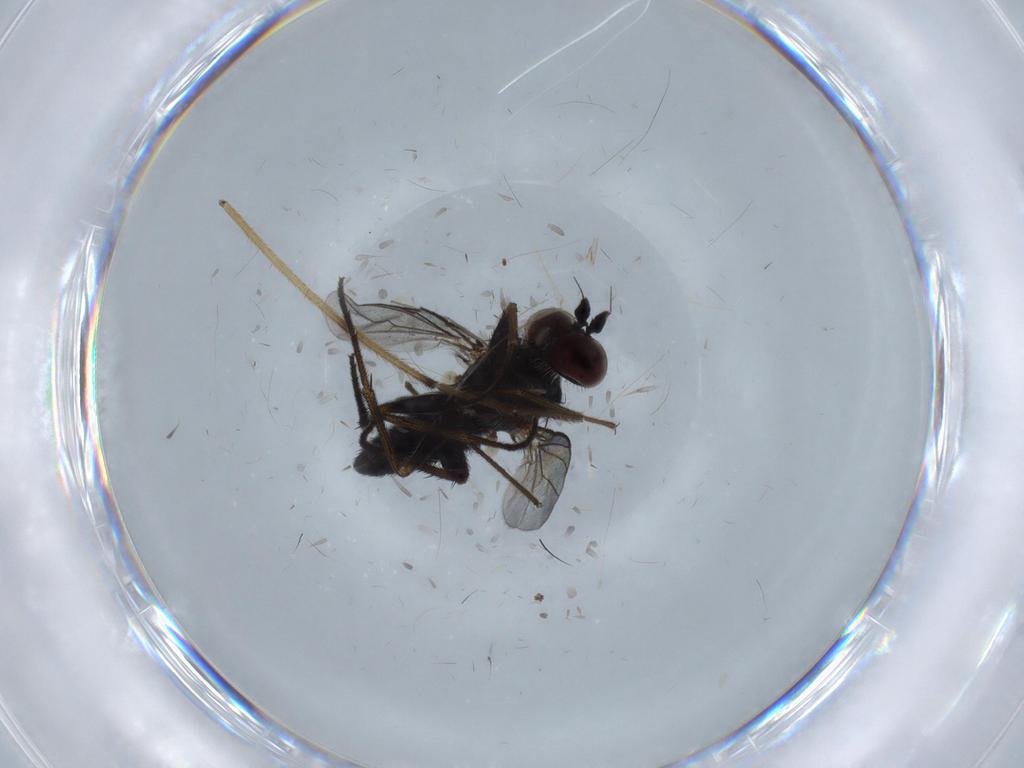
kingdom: Animalia
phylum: Arthropoda
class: Insecta
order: Diptera
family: Dolichopodidae
